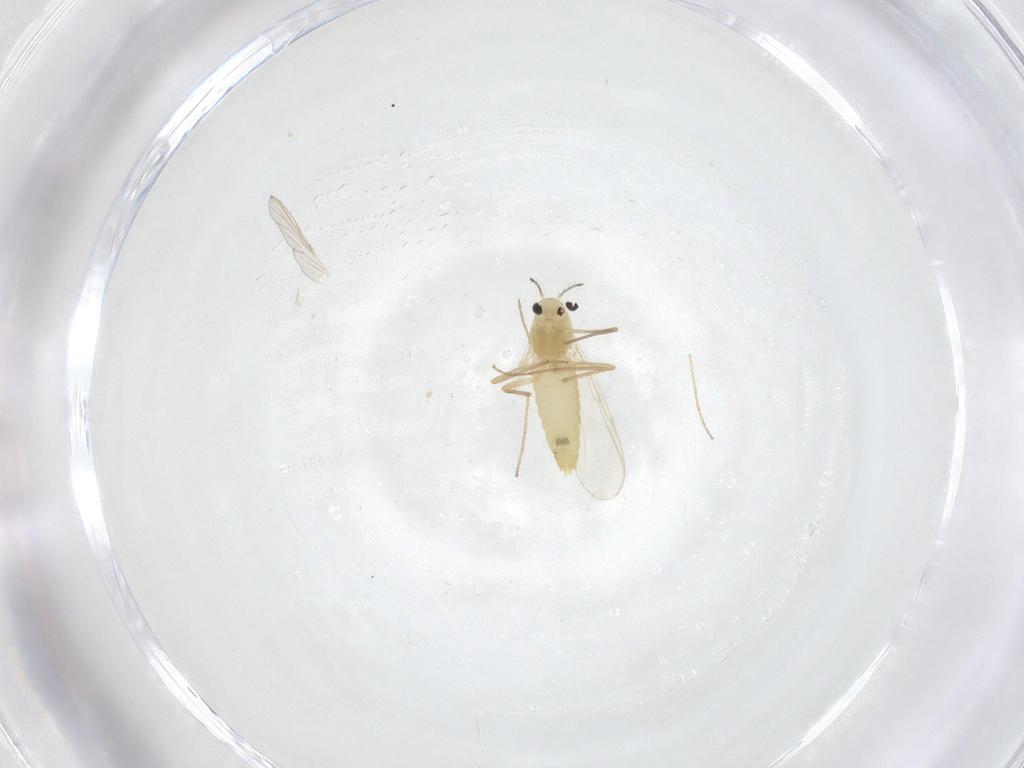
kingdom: Animalia
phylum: Arthropoda
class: Insecta
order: Diptera
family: Chironomidae
